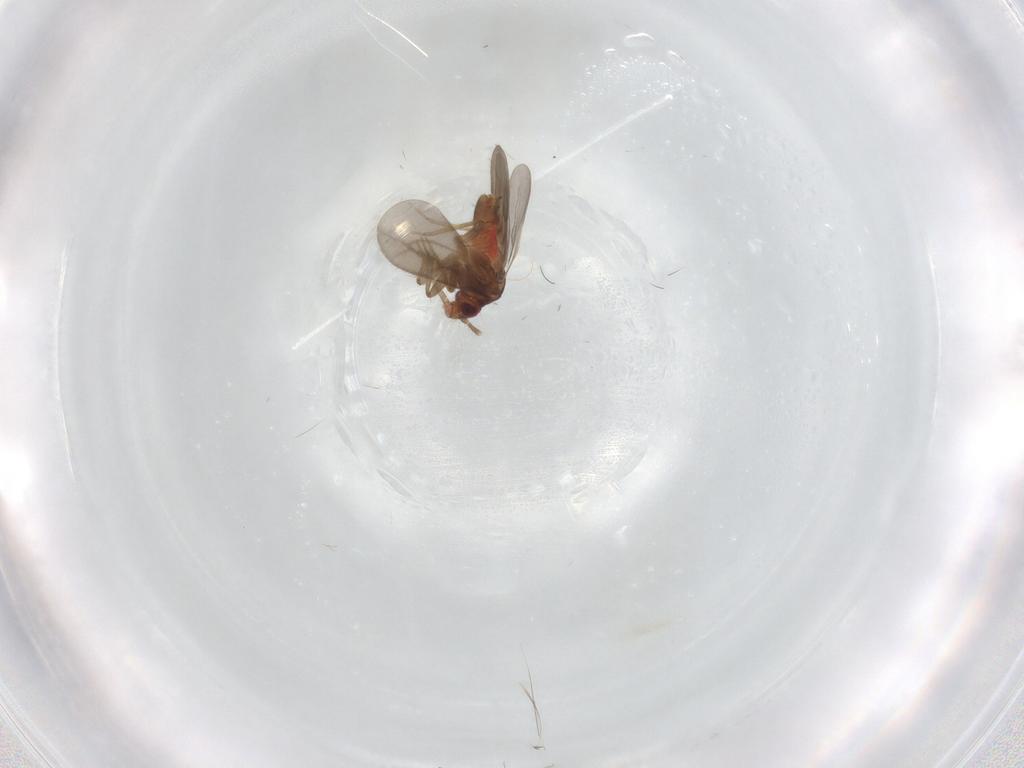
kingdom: Animalia
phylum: Arthropoda
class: Insecta
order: Hemiptera
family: Ceratocombidae
